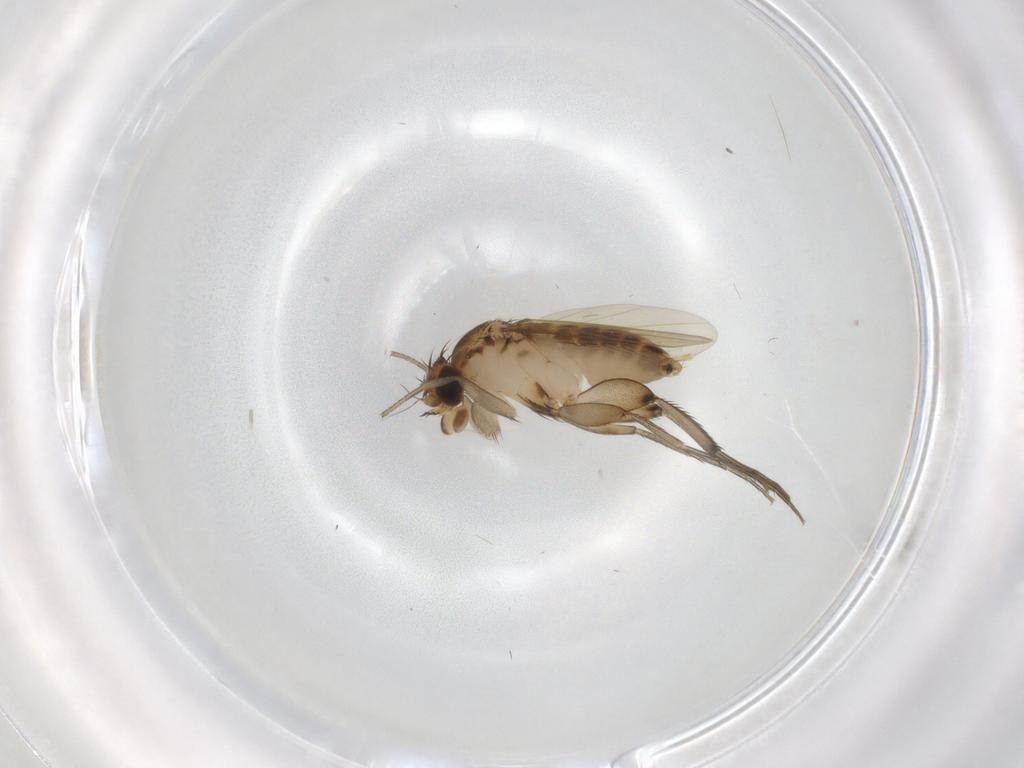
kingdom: Animalia
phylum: Arthropoda
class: Insecta
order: Diptera
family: Phoridae
